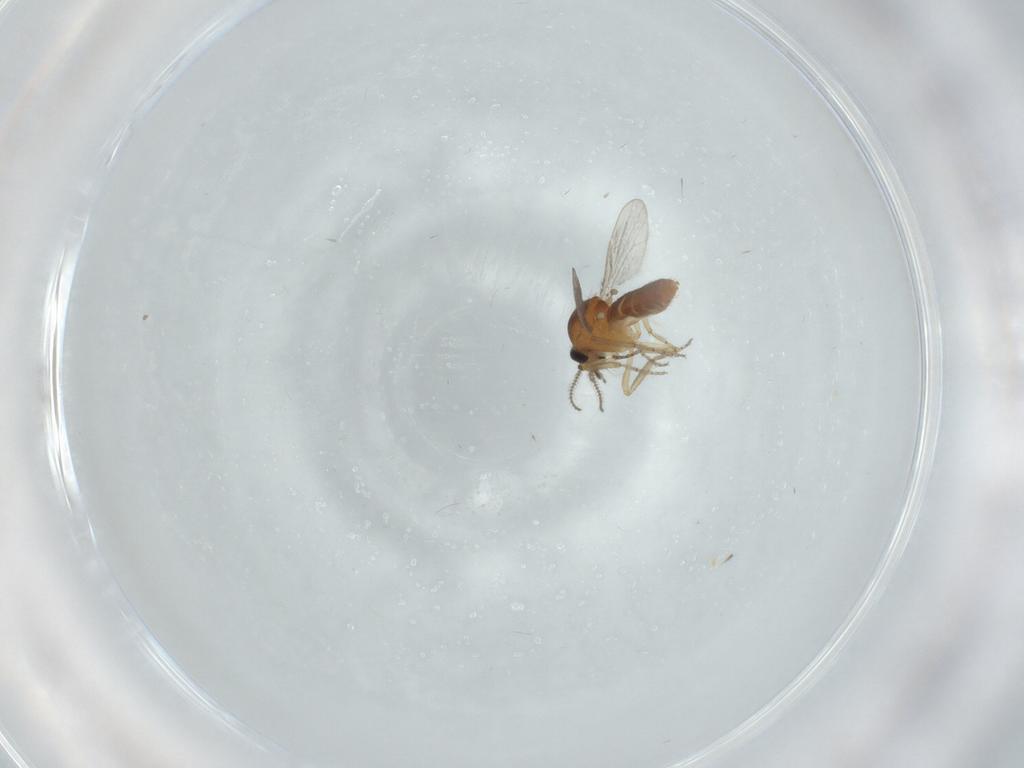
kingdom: Animalia
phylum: Arthropoda
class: Insecta
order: Diptera
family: Ceratopogonidae
